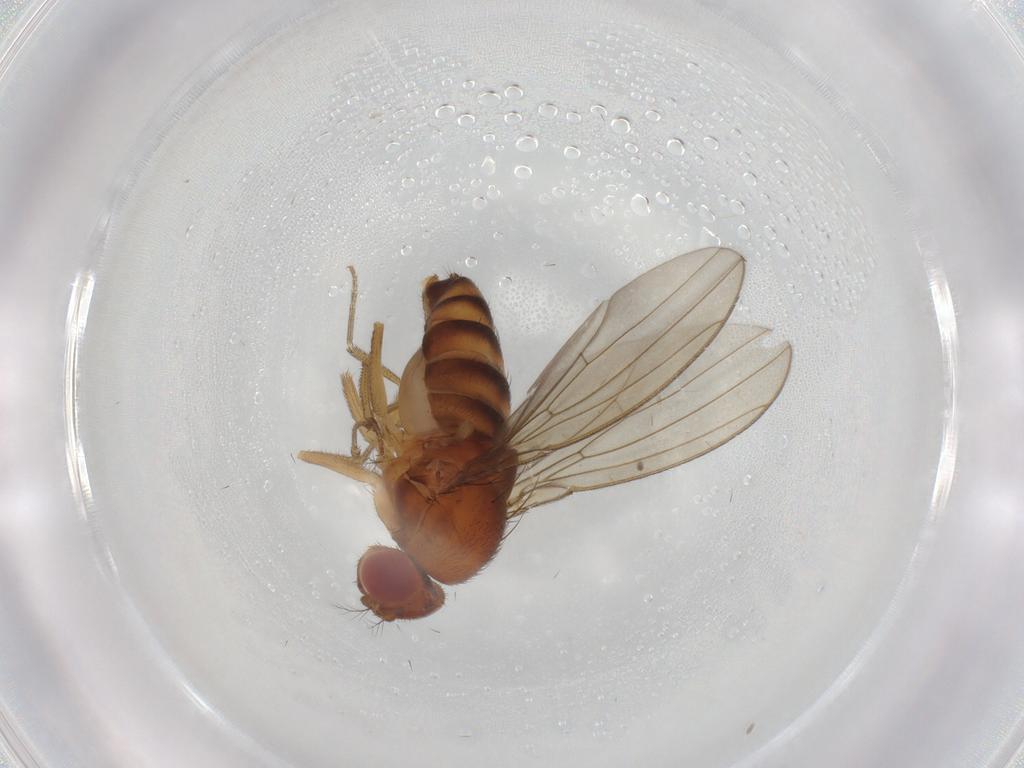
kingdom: Animalia
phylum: Arthropoda
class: Insecta
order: Diptera
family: Drosophilidae
